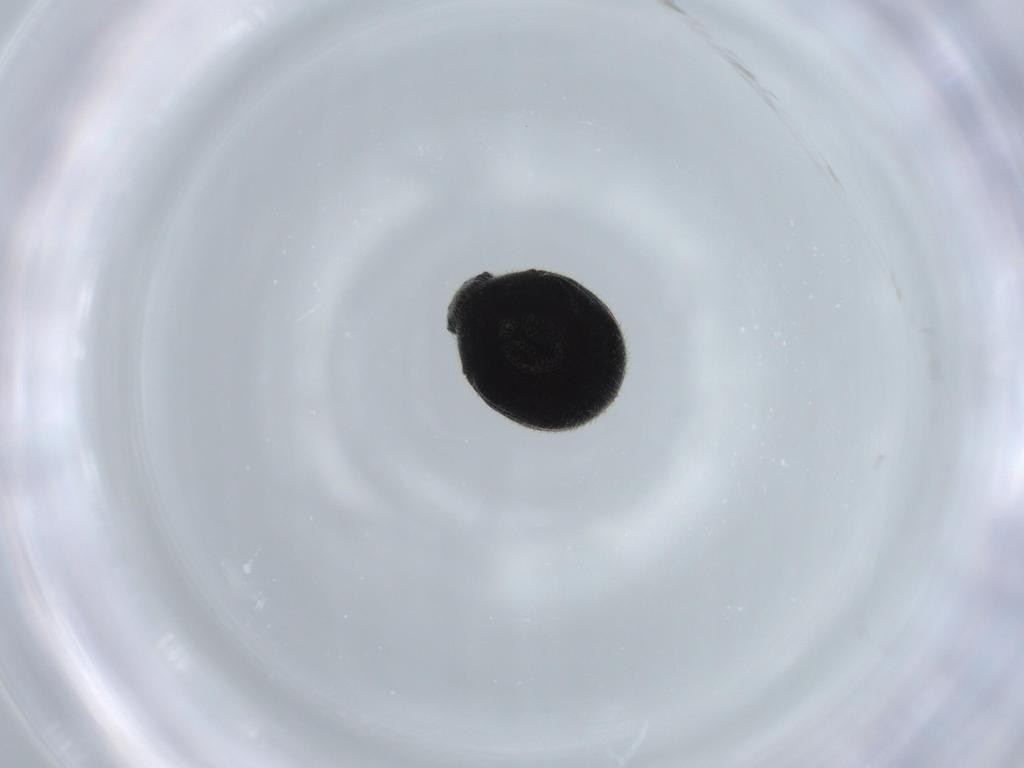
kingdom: Animalia
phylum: Arthropoda
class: Insecta
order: Coleoptera
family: Ptinidae
